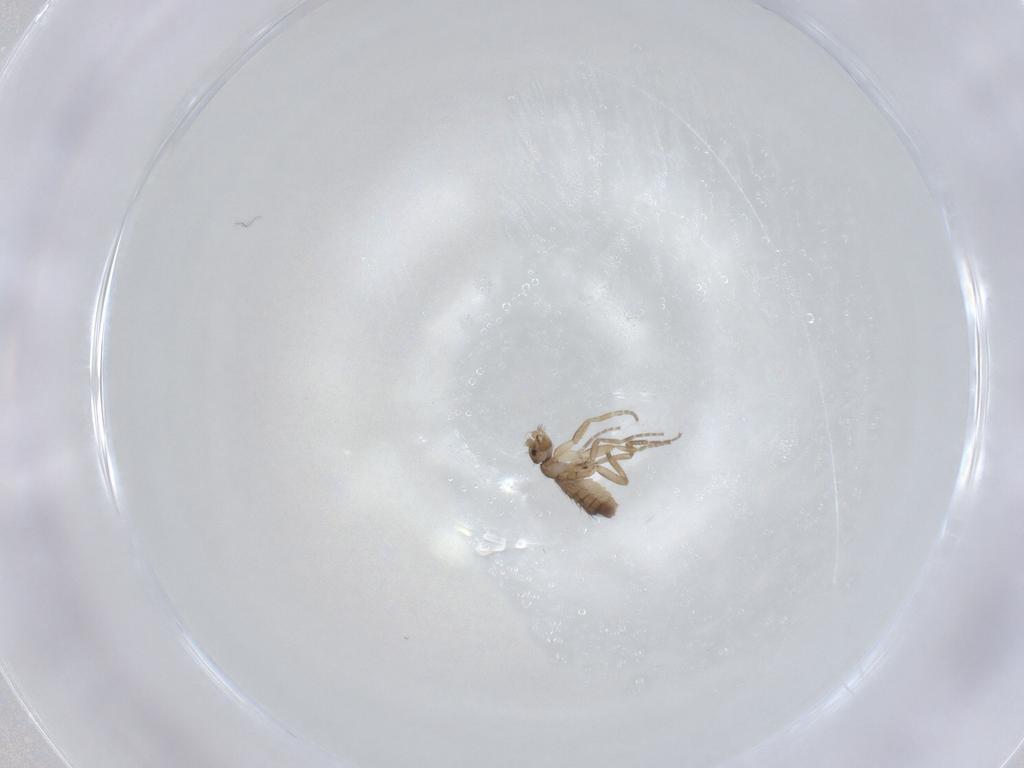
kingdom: Animalia
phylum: Arthropoda
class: Insecta
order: Diptera
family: Phoridae
